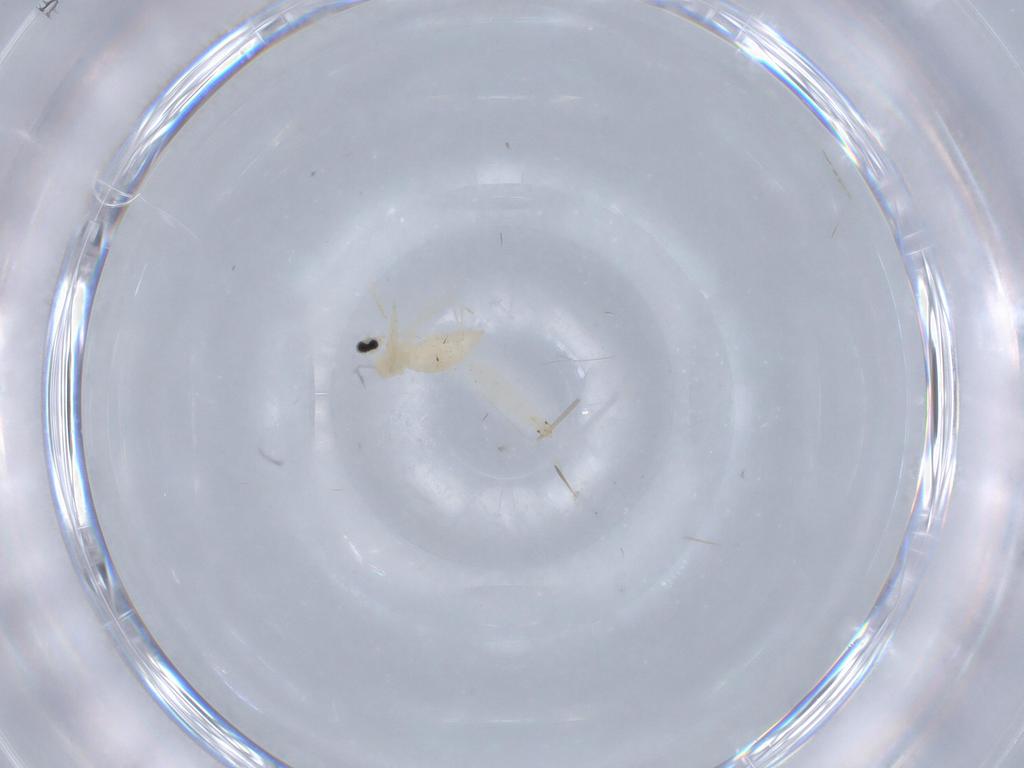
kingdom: Animalia
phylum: Arthropoda
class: Insecta
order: Diptera
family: Cecidomyiidae
